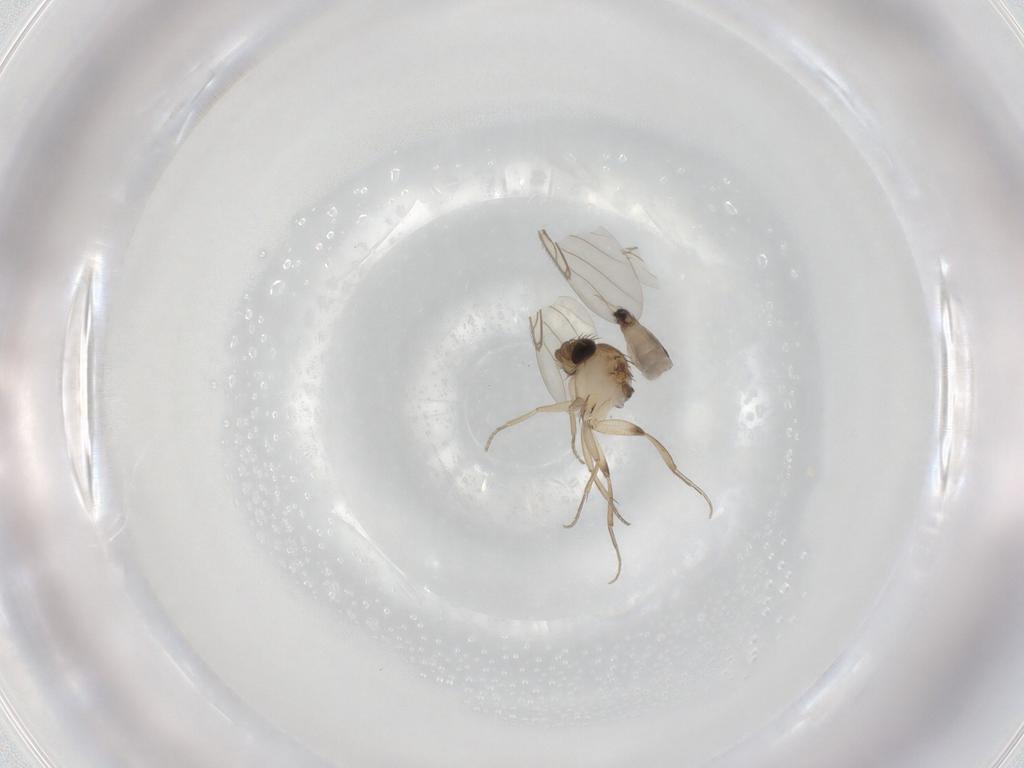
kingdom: Animalia
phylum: Arthropoda
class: Insecta
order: Diptera
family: Phoridae
